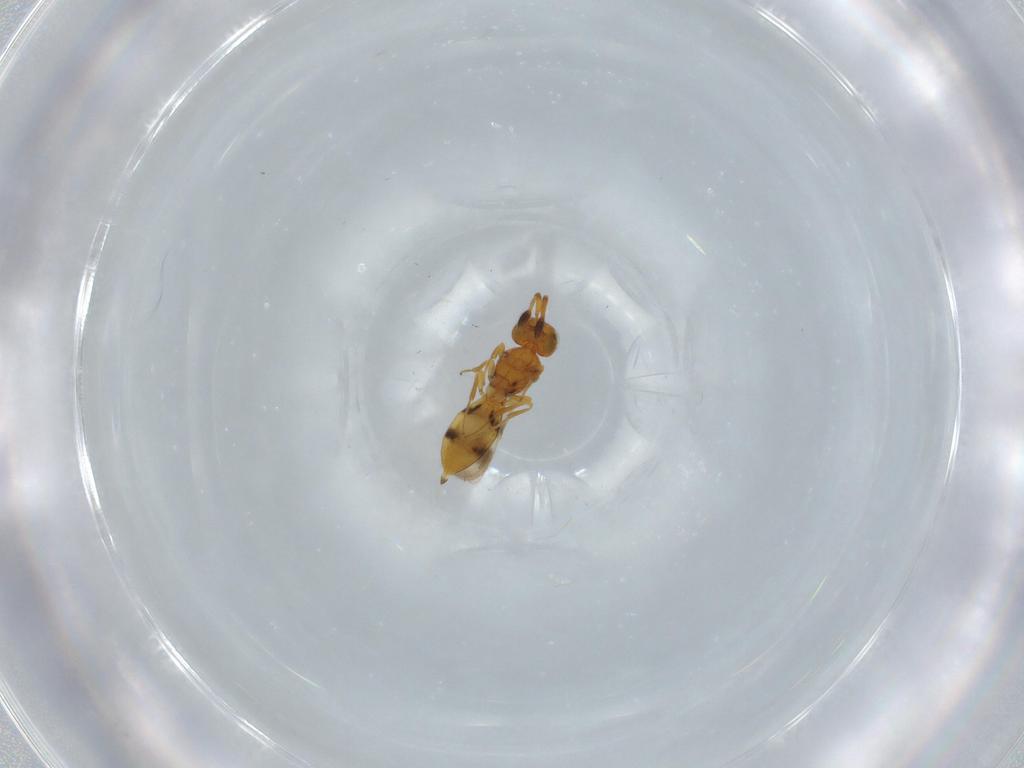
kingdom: Animalia
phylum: Arthropoda
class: Insecta
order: Hymenoptera
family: Scelionidae
